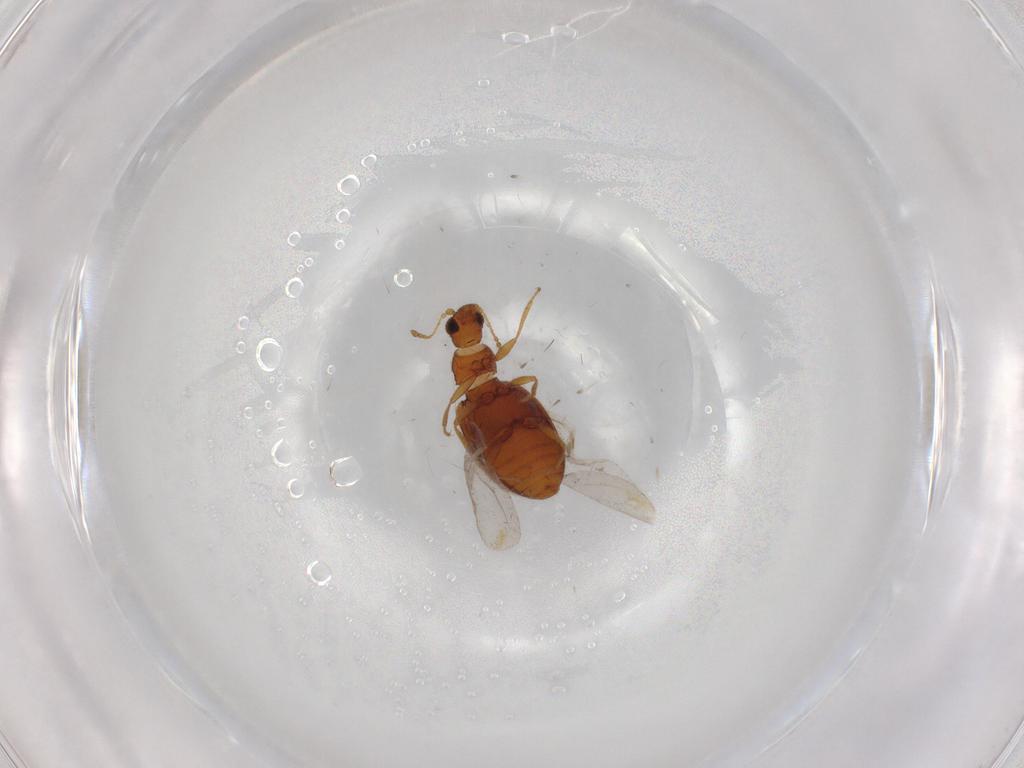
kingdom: Animalia
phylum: Arthropoda
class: Insecta
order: Coleoptera
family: Latridiidae
